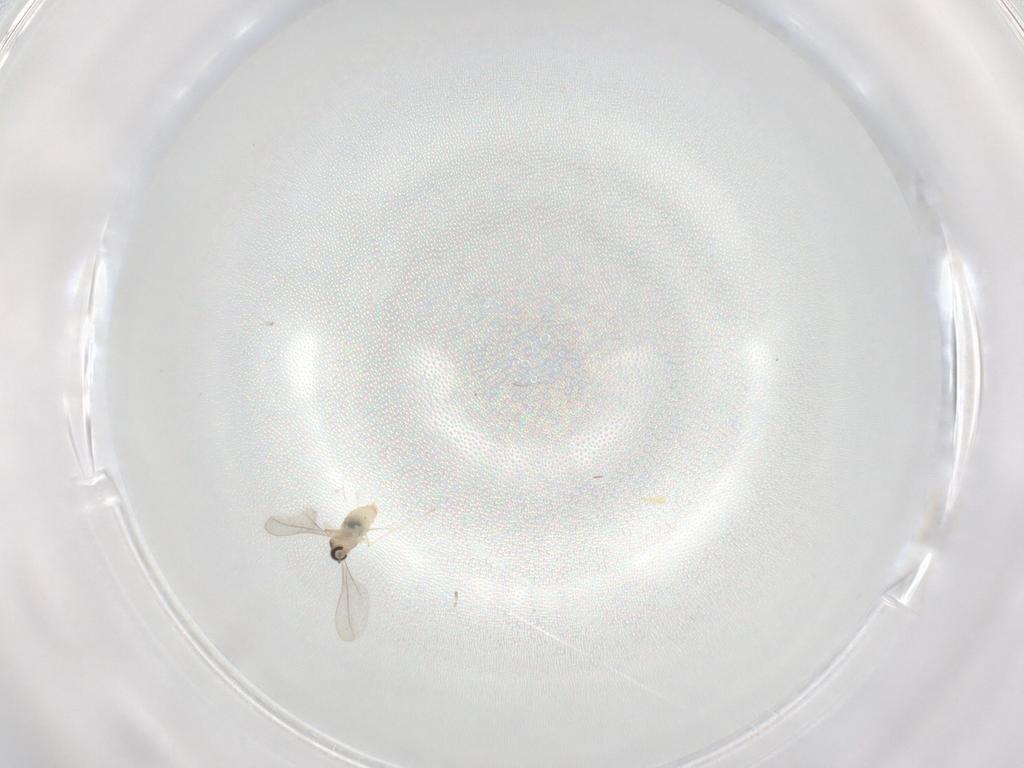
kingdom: Animalia
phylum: Arthropoda
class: Insecta
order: Diptera
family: Cecidomyiidae
